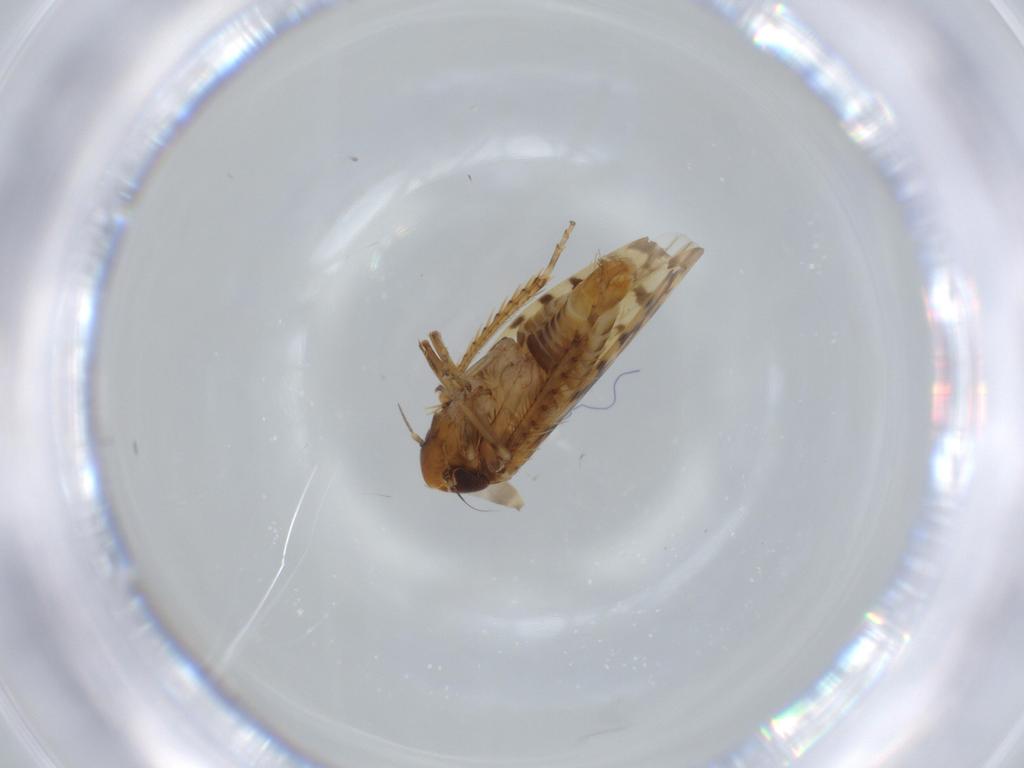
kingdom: Animalia
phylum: Arthropoda
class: Insecta
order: Hemiptera
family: Cicadellidae
